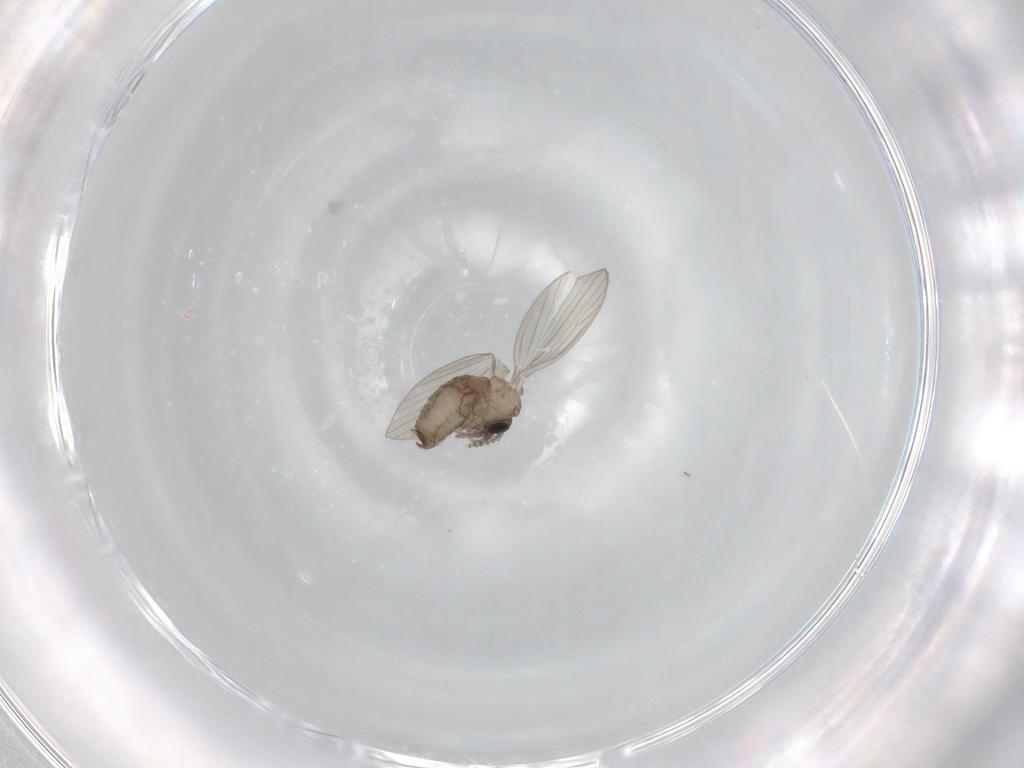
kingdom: Animalia
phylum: Arthropoda
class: Insecta
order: Diptera
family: Psychodidae
